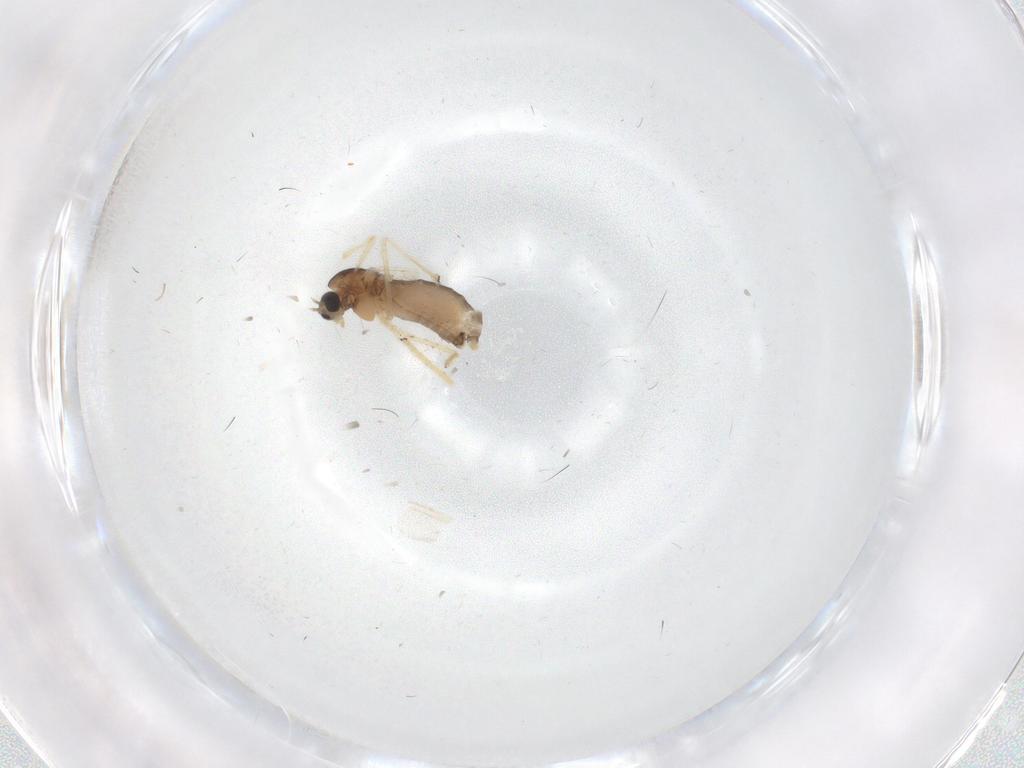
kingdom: Animalia
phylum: Arthropoda
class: Insecta
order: Diptera
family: Chironomidae
